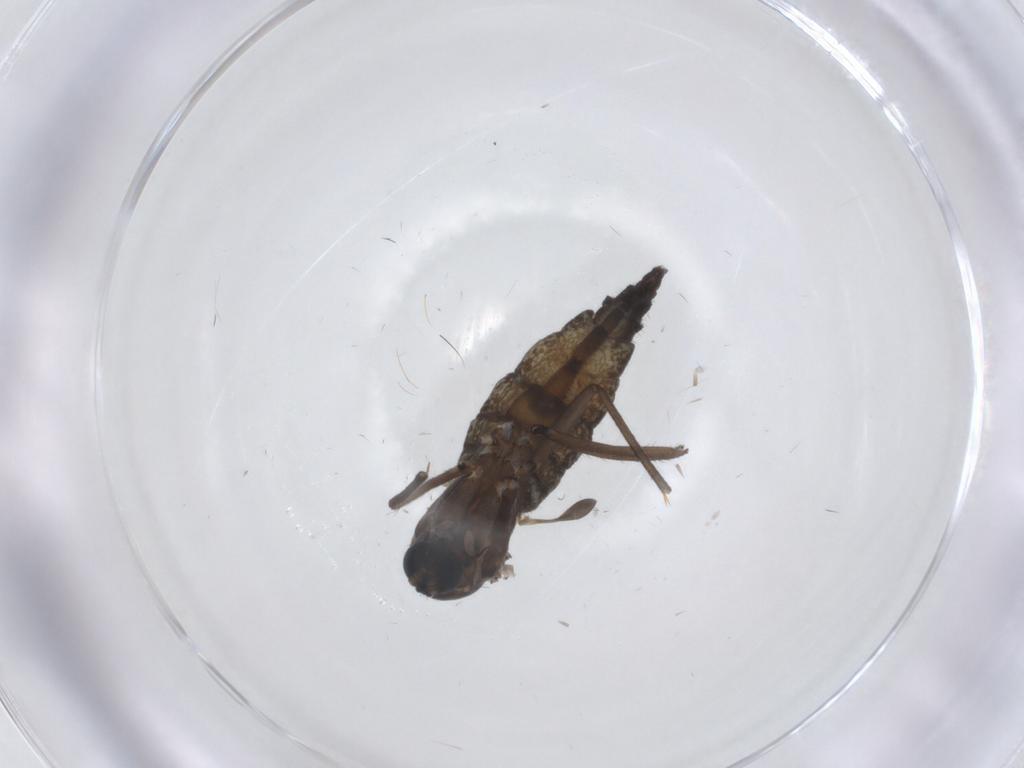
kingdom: Animalia
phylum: Arthropoda
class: Insecta
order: Diptera
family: Sciaridae
